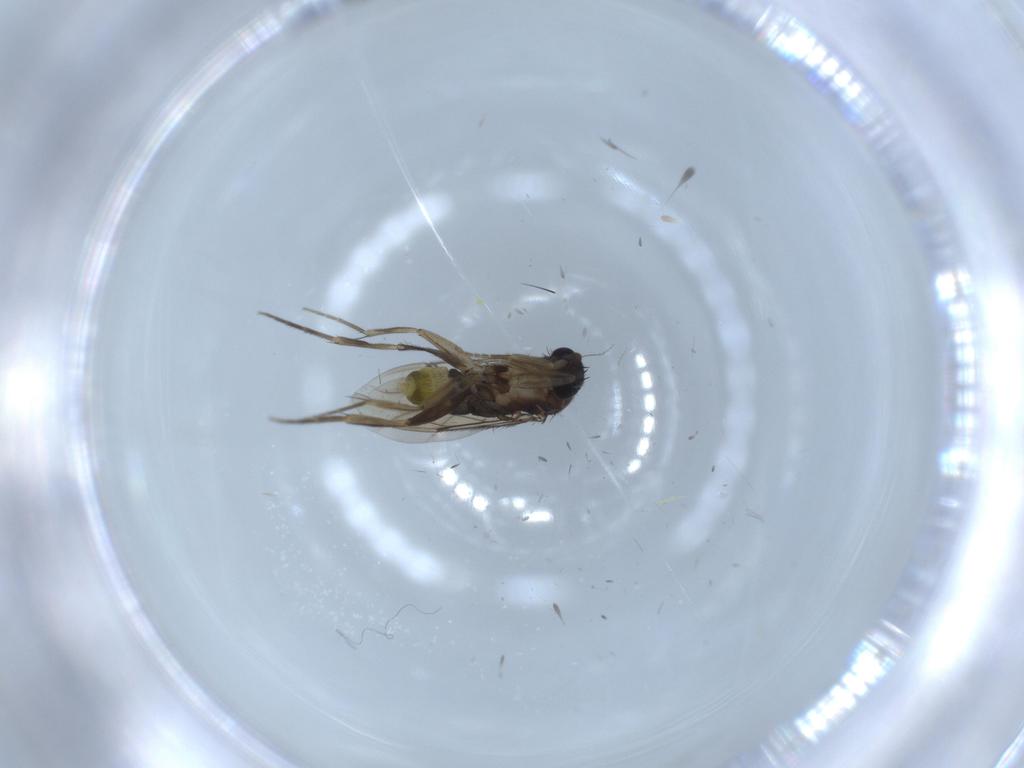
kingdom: Animalia
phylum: Arthropoda
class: Insecta
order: Diptera
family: Phoridae
